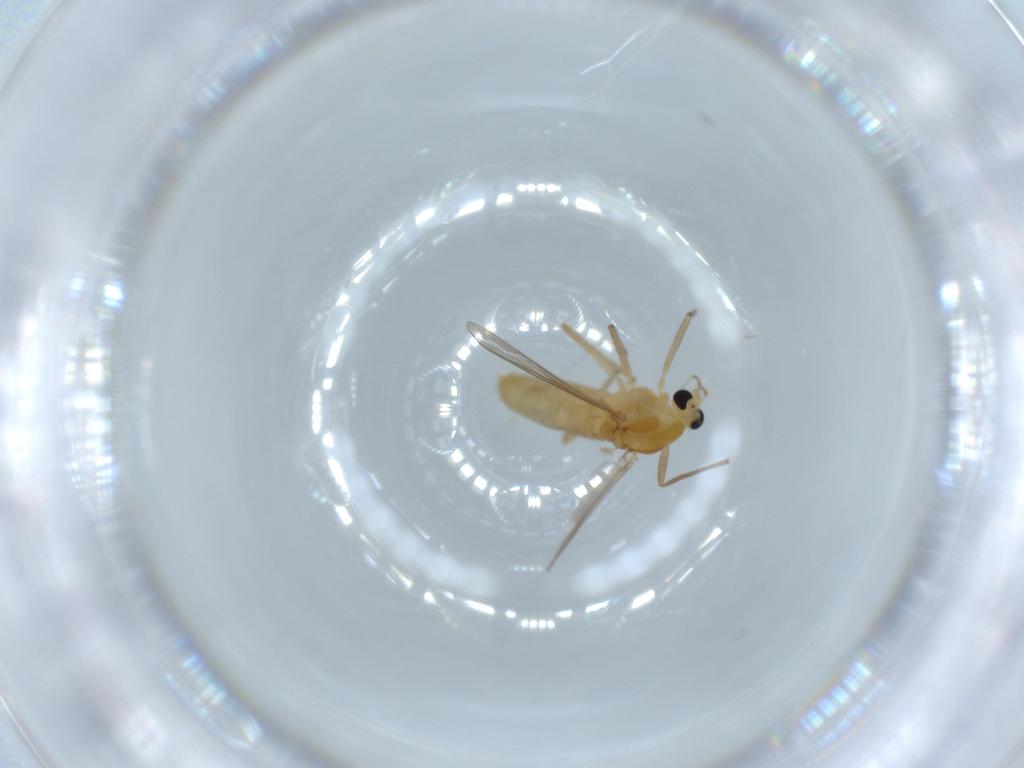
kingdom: Animalia
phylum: Arthropoda
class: Insecta
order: Diptera
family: Chironomidae
